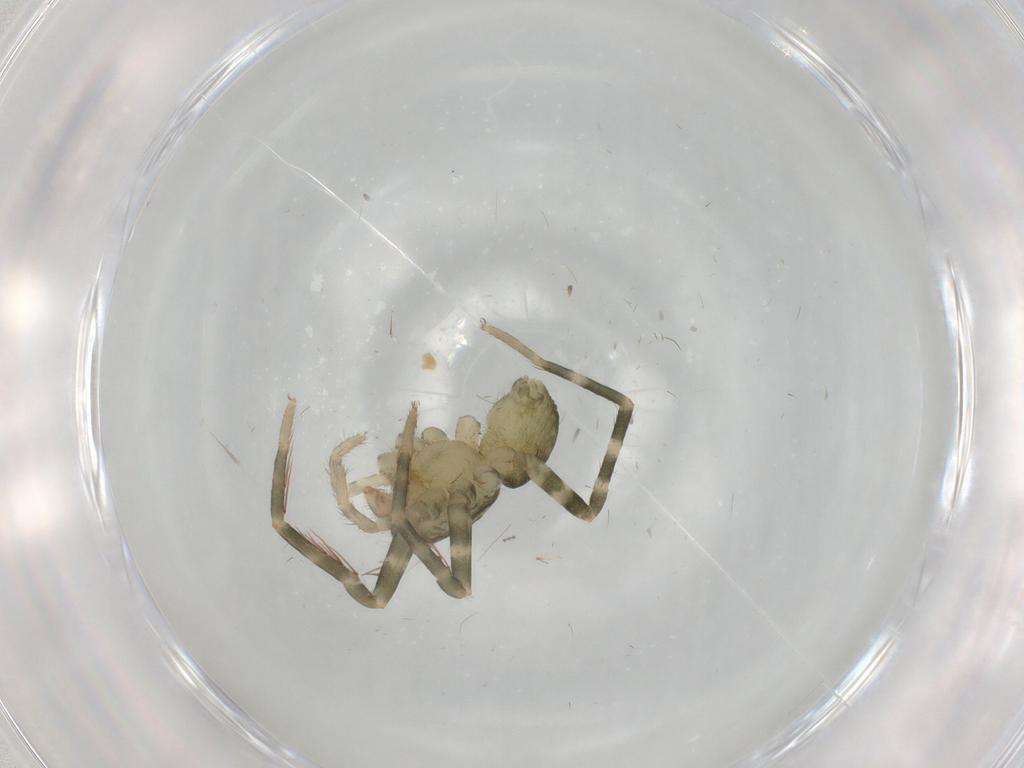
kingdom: Animalia
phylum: Arthropoda
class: Arachnida
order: Araneae
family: Ctenidae
